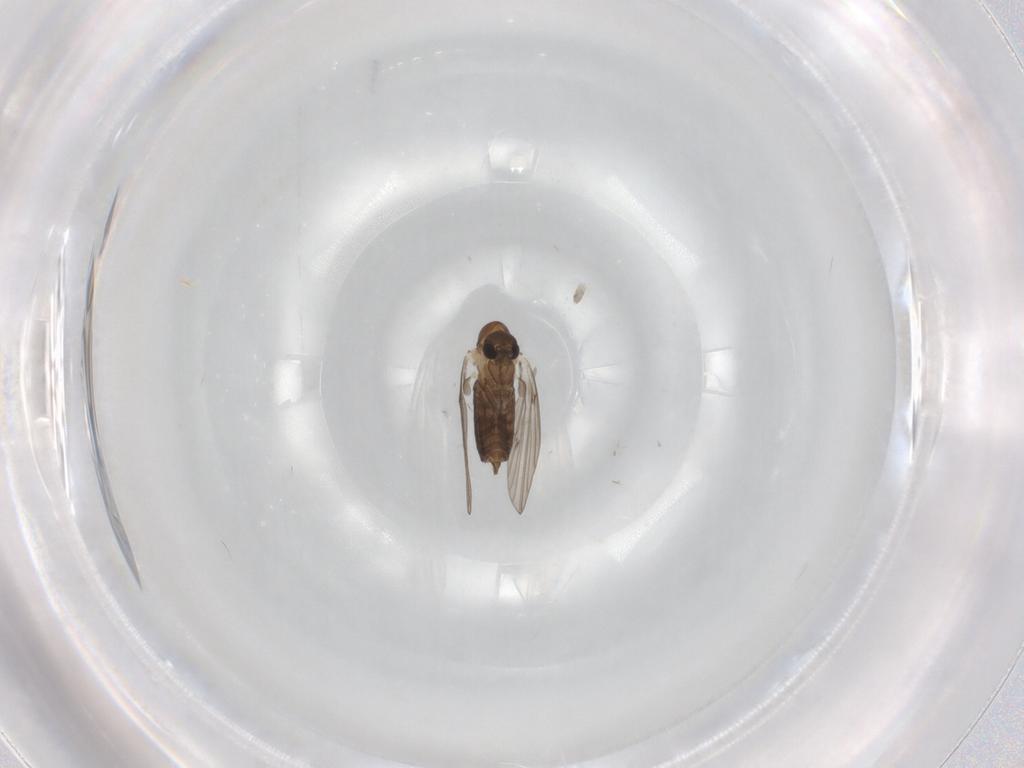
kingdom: Animalia
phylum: Arthropoda
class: Insecta
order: Diptera
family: Drosophilidae
